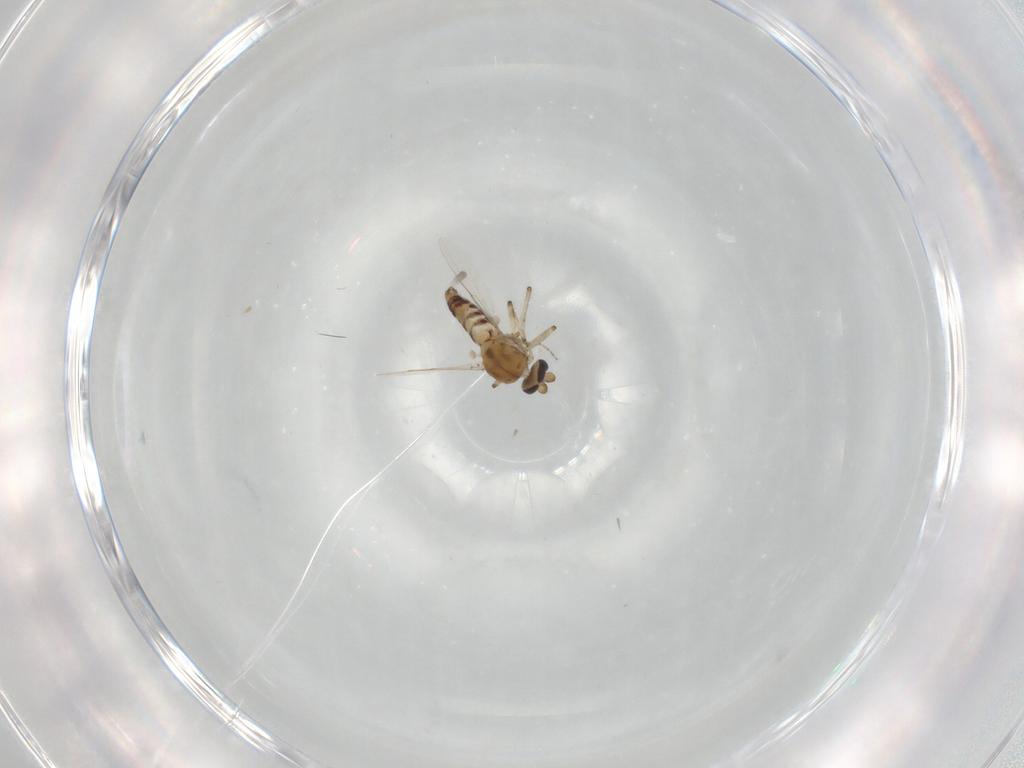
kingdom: Animalia
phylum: Arthropoda
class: Insecta
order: Diptera
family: Ceratopogonidae
